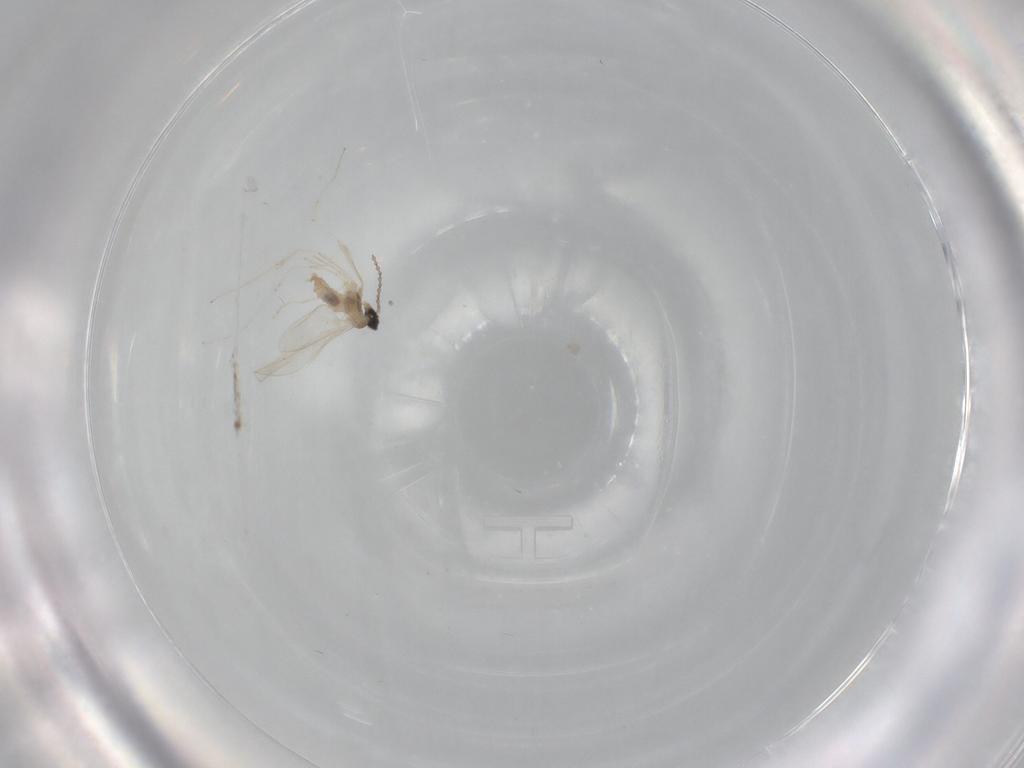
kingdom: Animalia
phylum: Arthropoda
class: Insecta
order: Diptera
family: Cecidomyiidae
